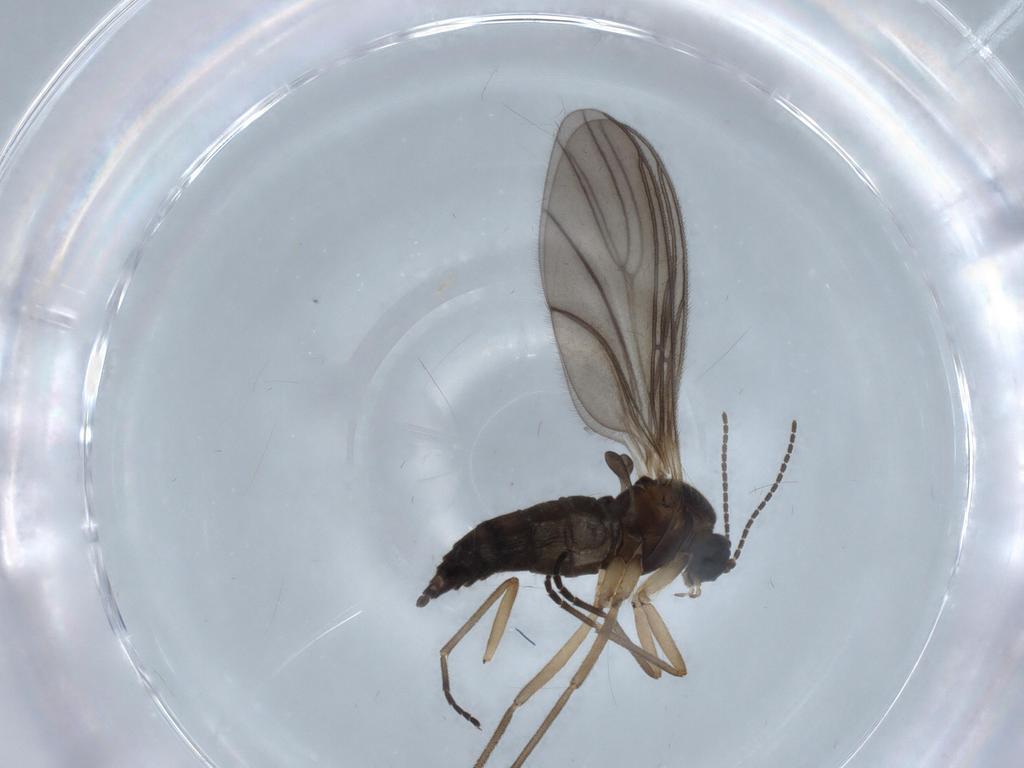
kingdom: Animalia
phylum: Arthropoda
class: Insecta
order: Diptera
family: Sciaridae
